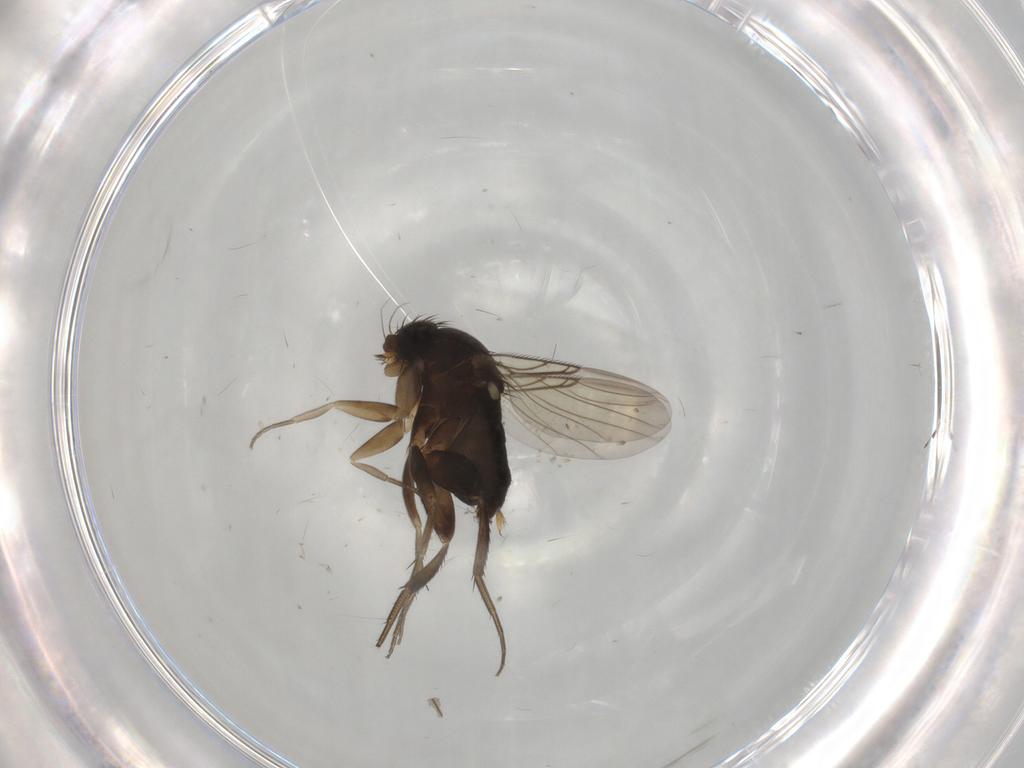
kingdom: Animalia
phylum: Arthropoda
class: Insecta
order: Diptera
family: Phoridae
